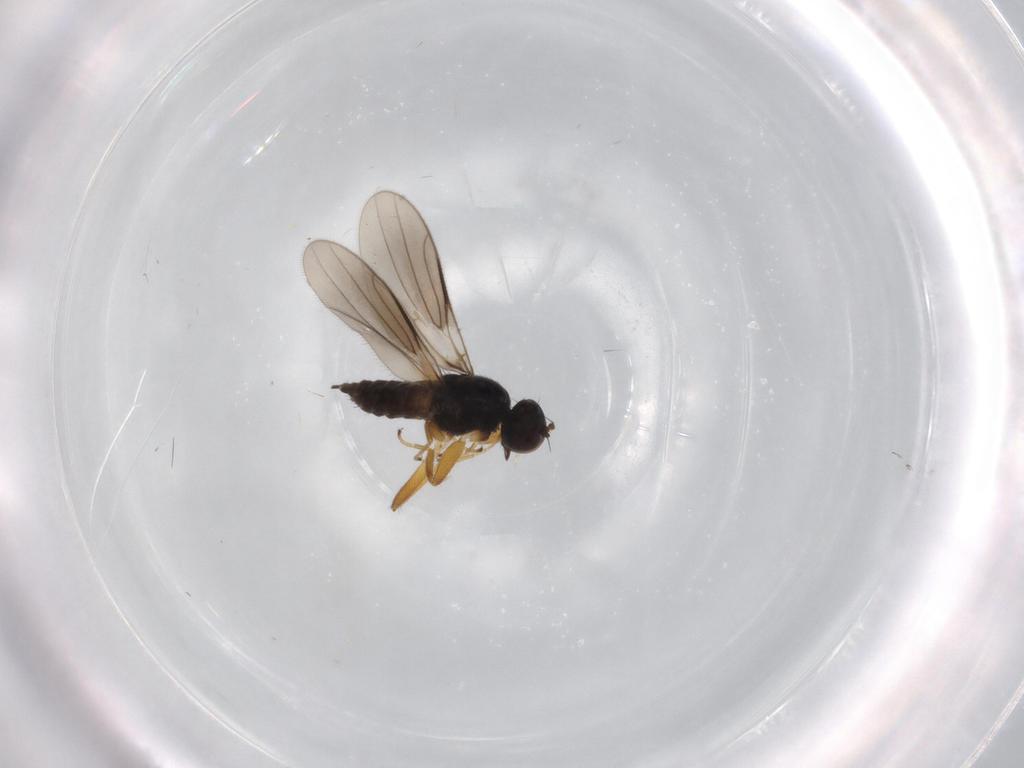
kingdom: Animalia
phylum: Arthropoda
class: Insecta
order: Diptera
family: Hybotidae
